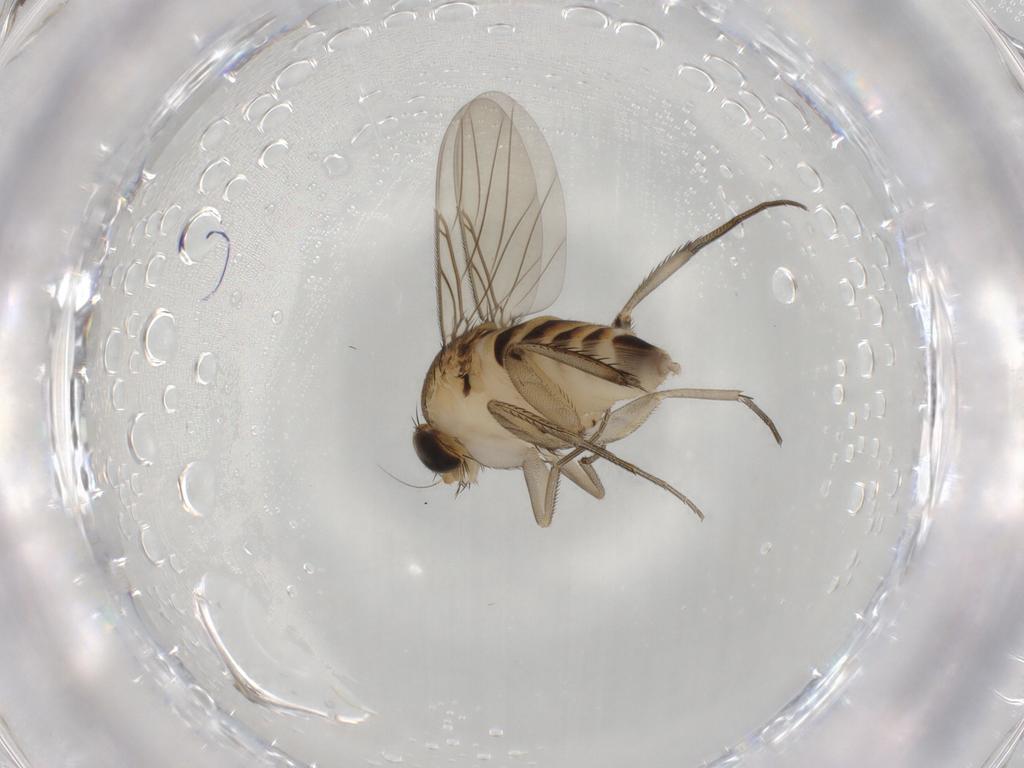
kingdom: Animalia
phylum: Arthropoda
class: Insecta
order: Diptera
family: Phoridae
